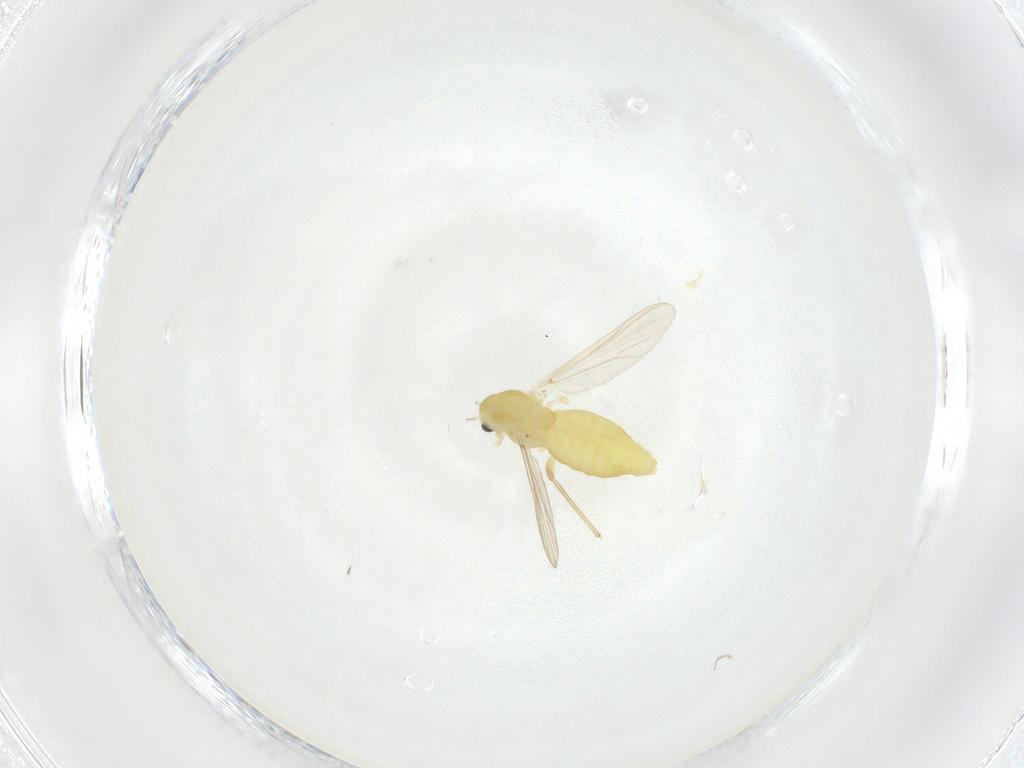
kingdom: Animalia
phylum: Arthropoda
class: Insecta
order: Diptera
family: Chironomidae
